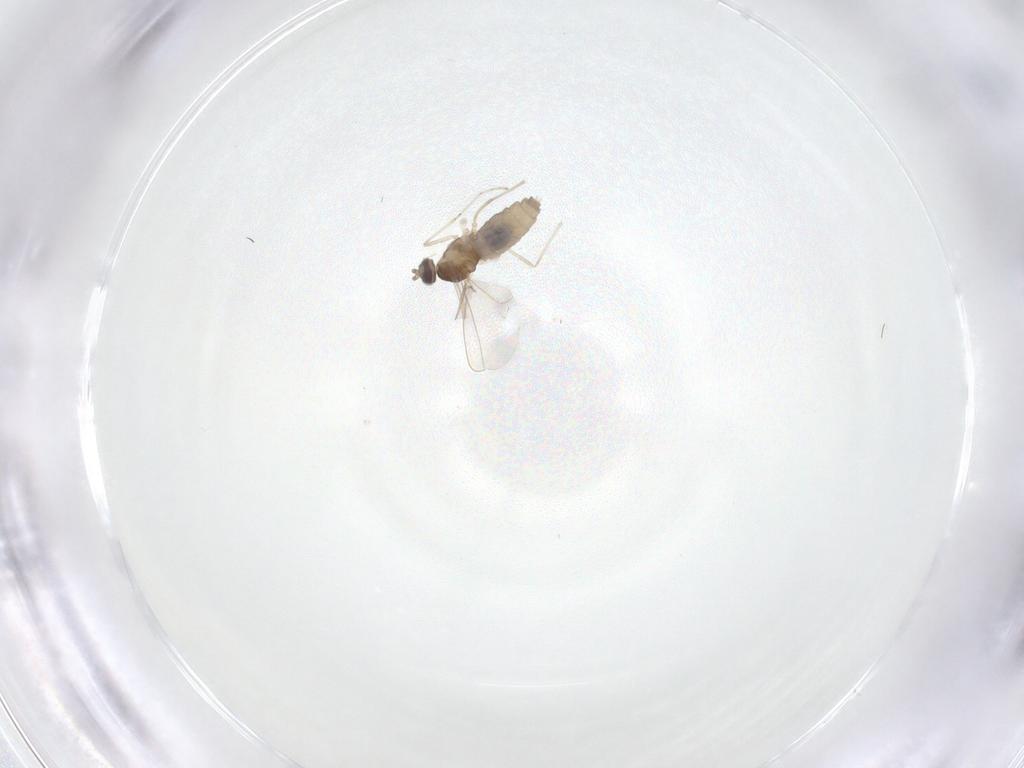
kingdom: Animalia
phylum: Arthropoda
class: Insecta
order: Diptera
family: Cecidomyiidae
